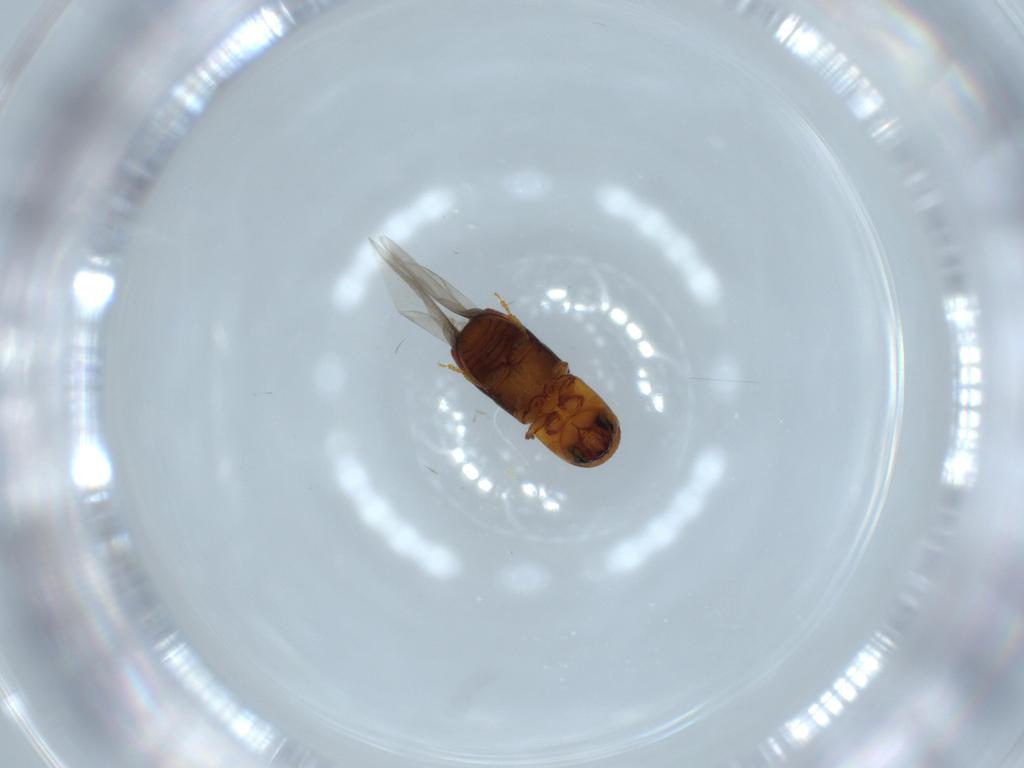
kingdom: Animalia
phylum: Arthropoda
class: Insecta
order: Coleoptera
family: Curculionidae
